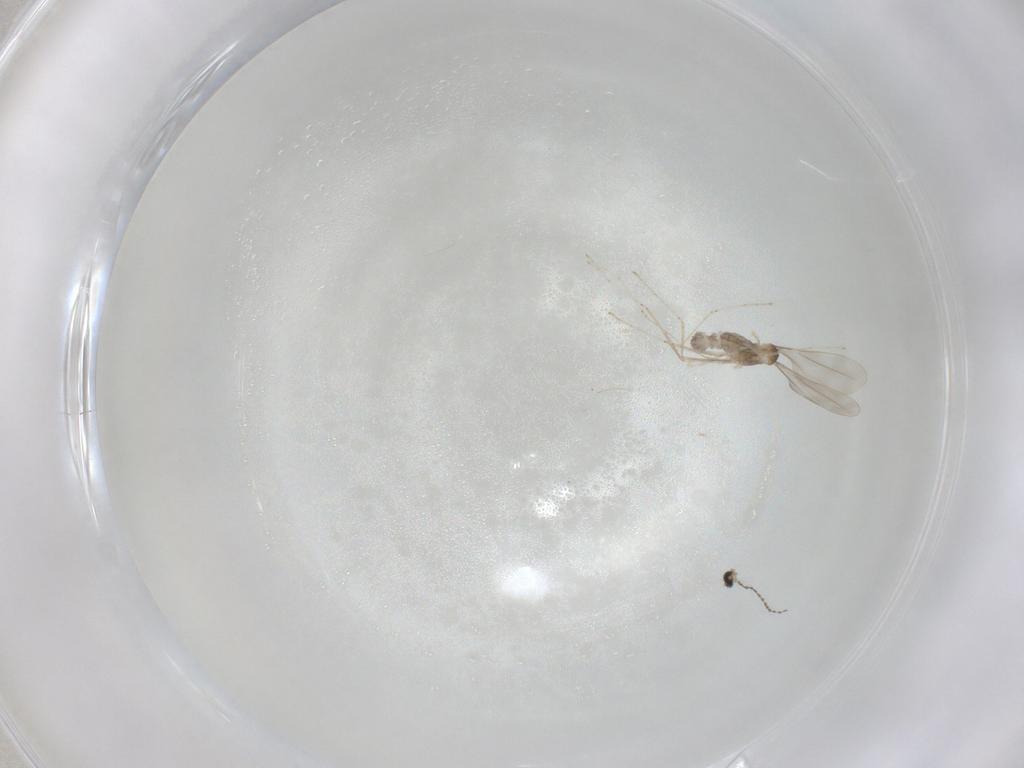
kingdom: Animalia
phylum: Arthropoda
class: Insecta
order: Diptera
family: Cecidomyiidae
